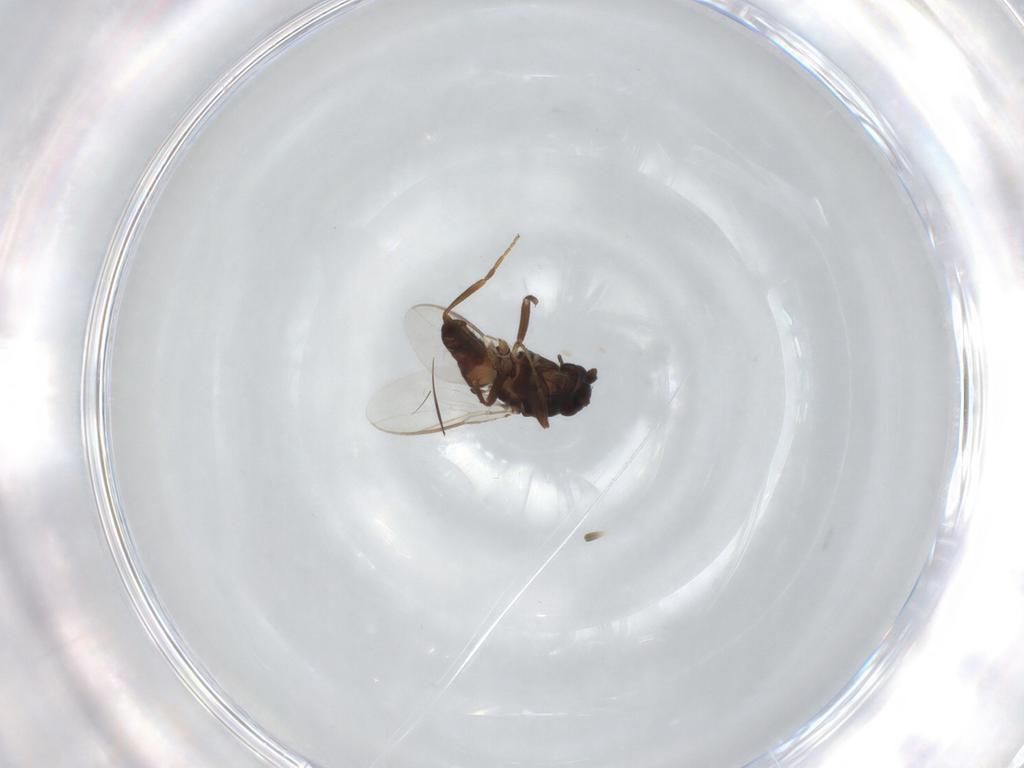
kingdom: Animalia
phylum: Arthropoda
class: Insecta
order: Diptera
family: Sphaeroceridae
